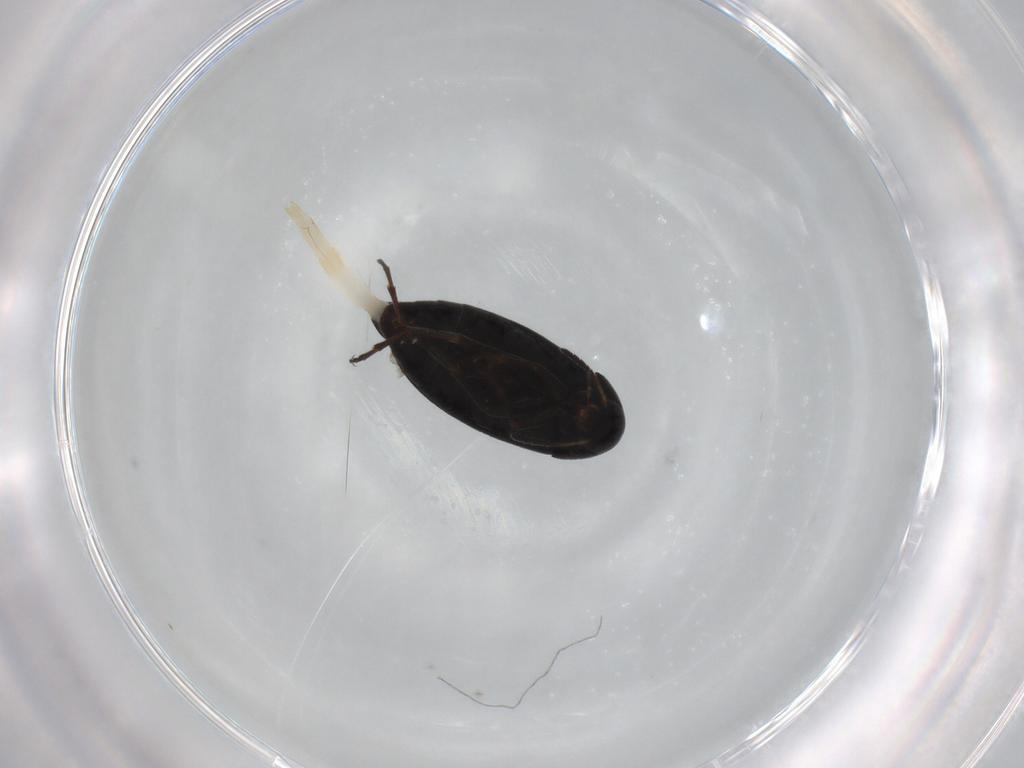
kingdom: Animalia
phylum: Arthropoda
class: Insecta
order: Coleoptera
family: Scraptiidae
